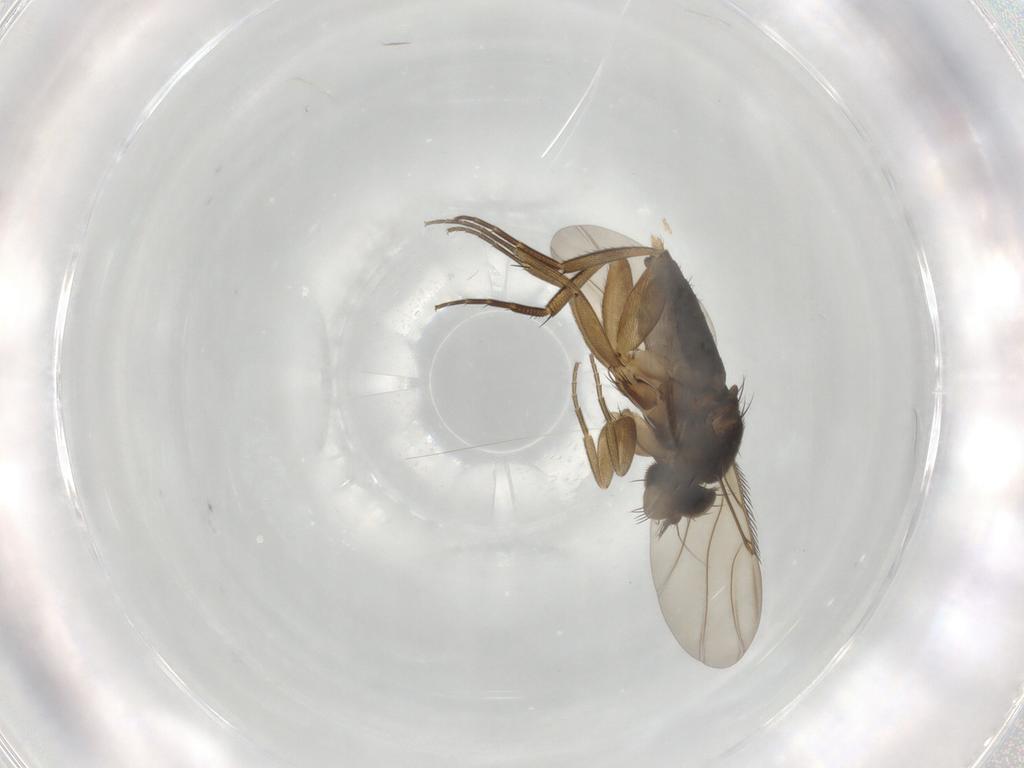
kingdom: Animalia
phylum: Arthropoda
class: Insecta
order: Diptera
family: Phoridae
